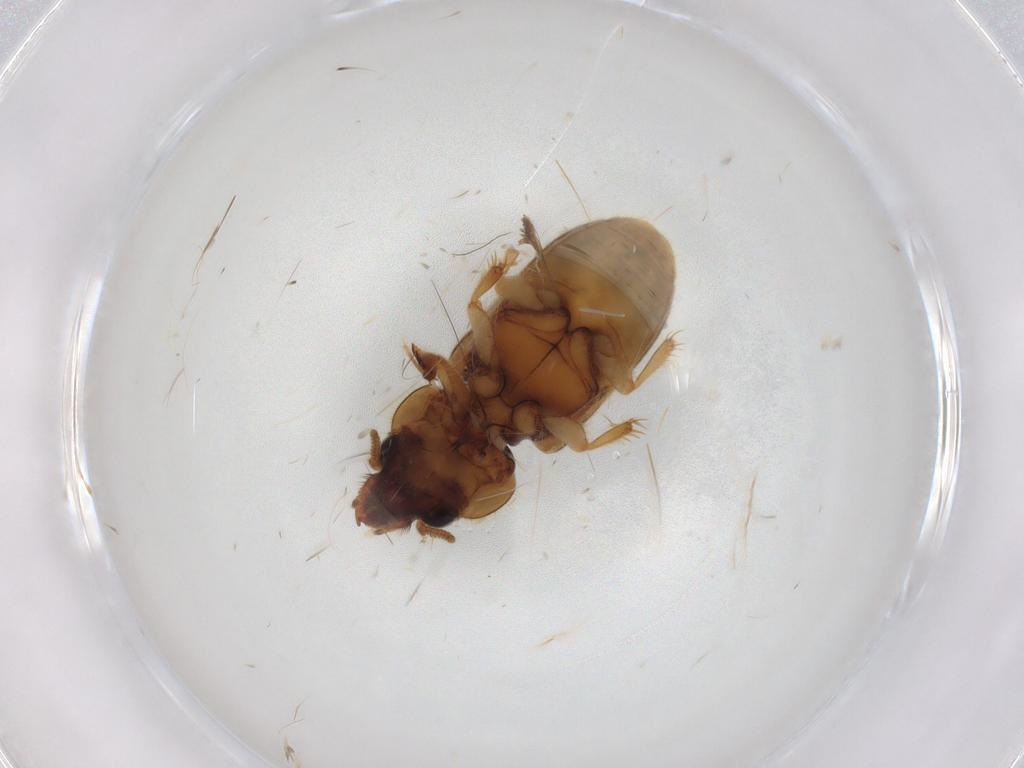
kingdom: Animalia
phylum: Arthropoda
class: Insecta
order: Coleoptera
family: Heteroceridae
